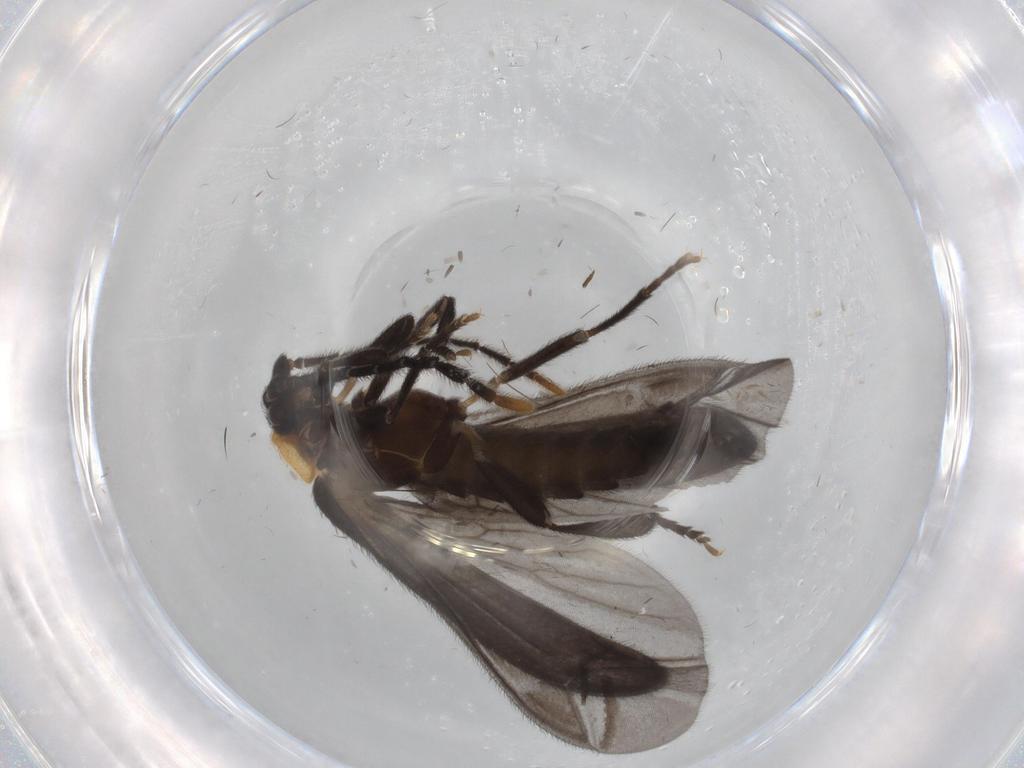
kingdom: Animalia
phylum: Arthropoda
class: Insecta
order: Coleoptera
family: Lycidae
